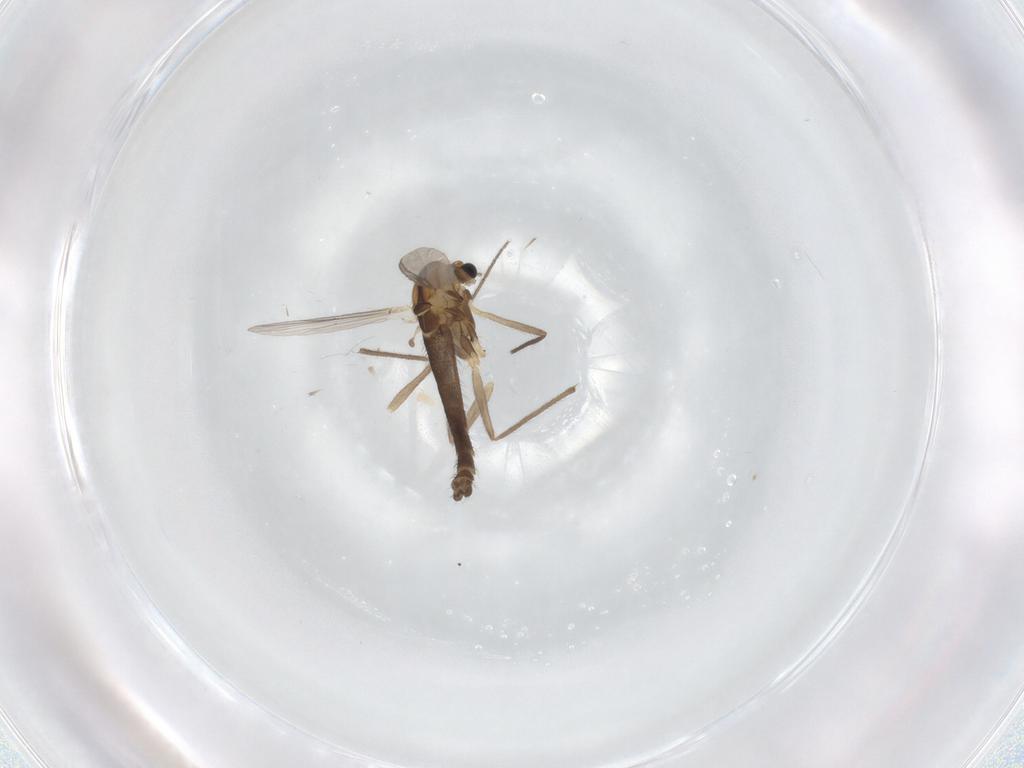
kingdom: Animalia
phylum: Arthropoda
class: Insecta
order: Diptera
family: Chironomidae
